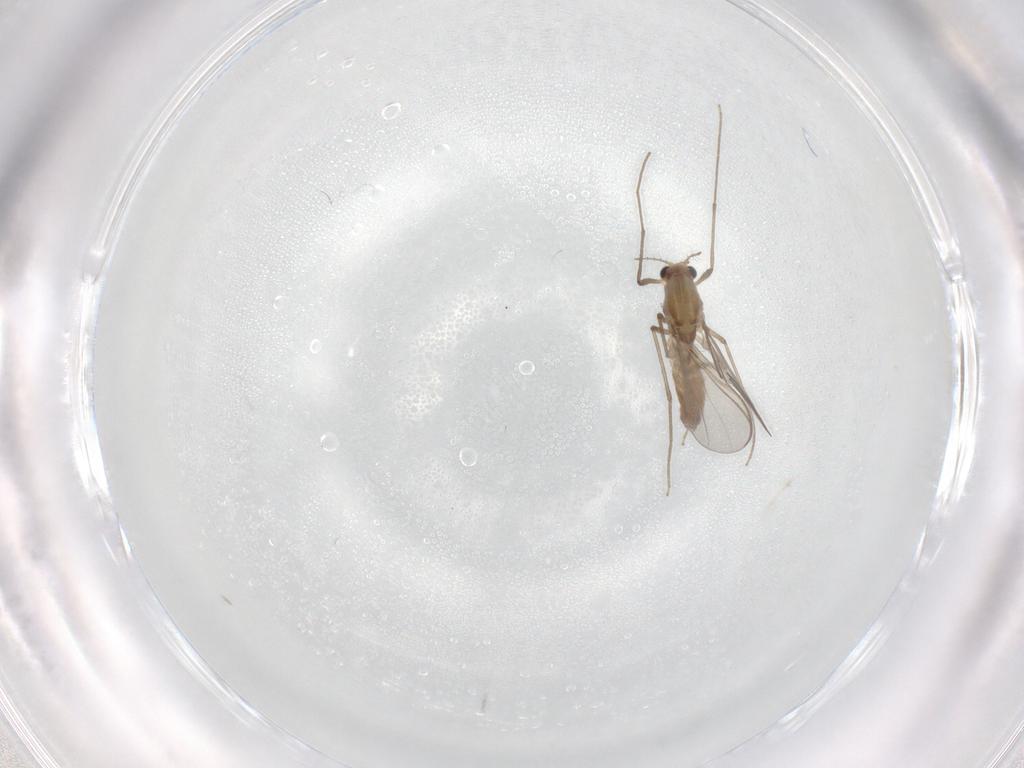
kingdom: Animalia
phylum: Arthropoda
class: Insecta
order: Diptera
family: Chironomidae
